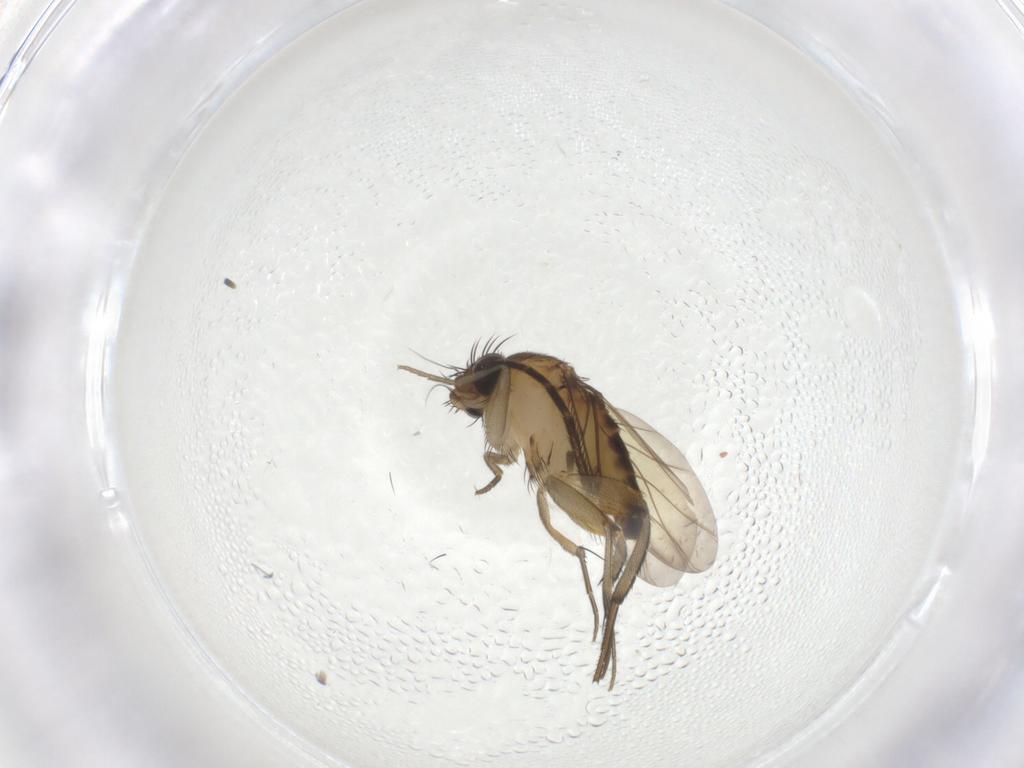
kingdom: Animalia
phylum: Arthropoda
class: Insecta
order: Diptera
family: Phoridae
